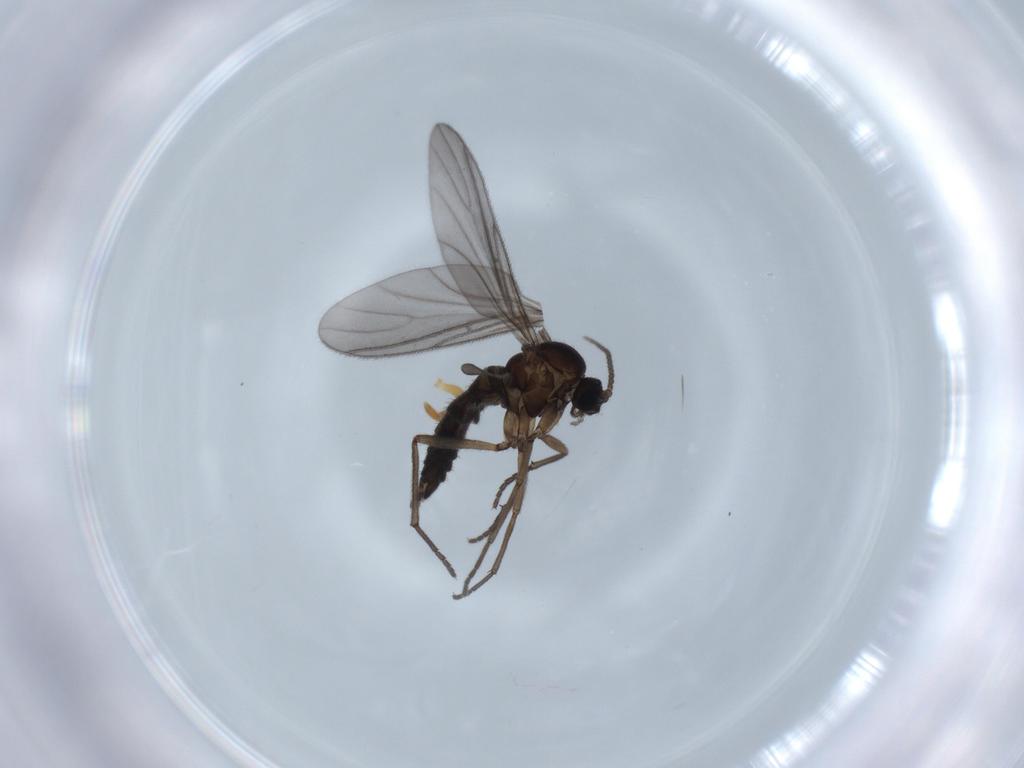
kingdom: Animalia
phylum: Arthropoda
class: Insecta
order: Diptera
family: Sciaridae
